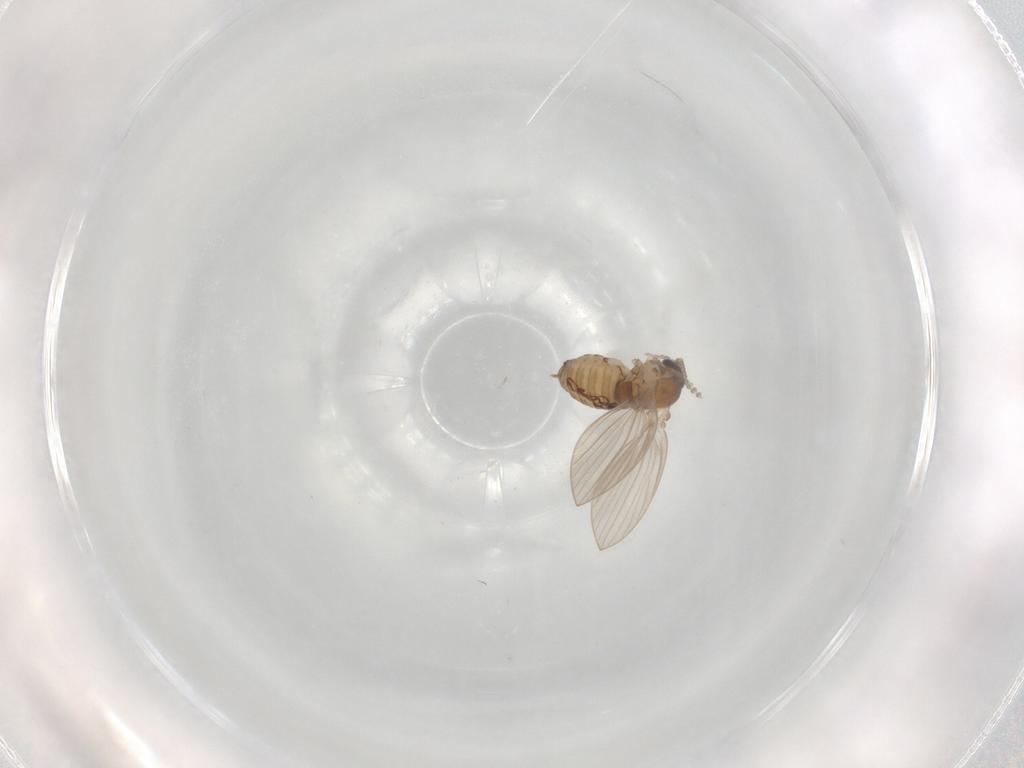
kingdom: Animalia
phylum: Arthropoda
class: Insecta
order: Diptera
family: Psychodidae
